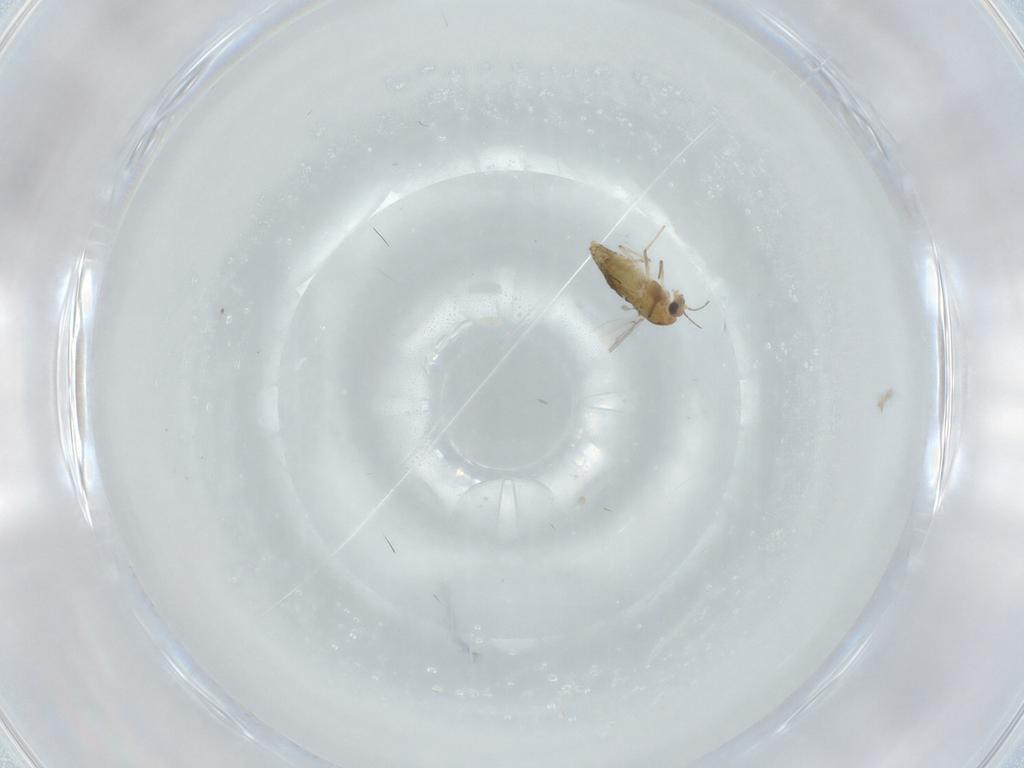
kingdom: Animalia
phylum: Arthropoda
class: Insecta
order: Diptera
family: Chironomidae
